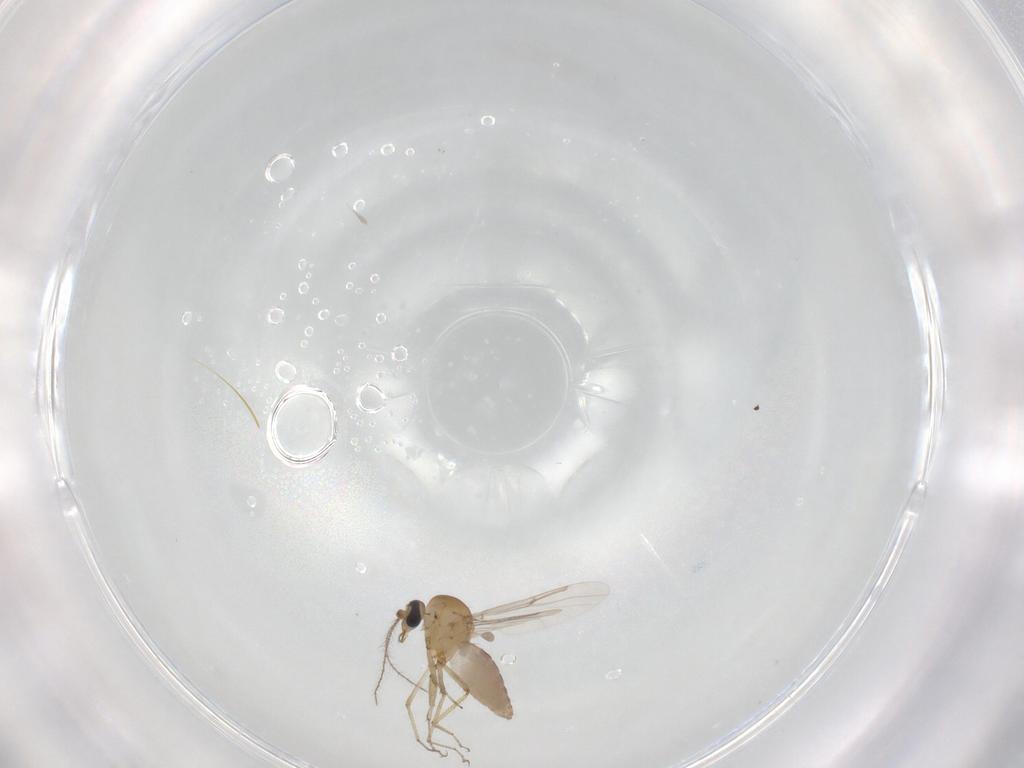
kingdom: Animalia
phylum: Arthropoda
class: Insecta
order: Diptera
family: Ceratopogonidae
